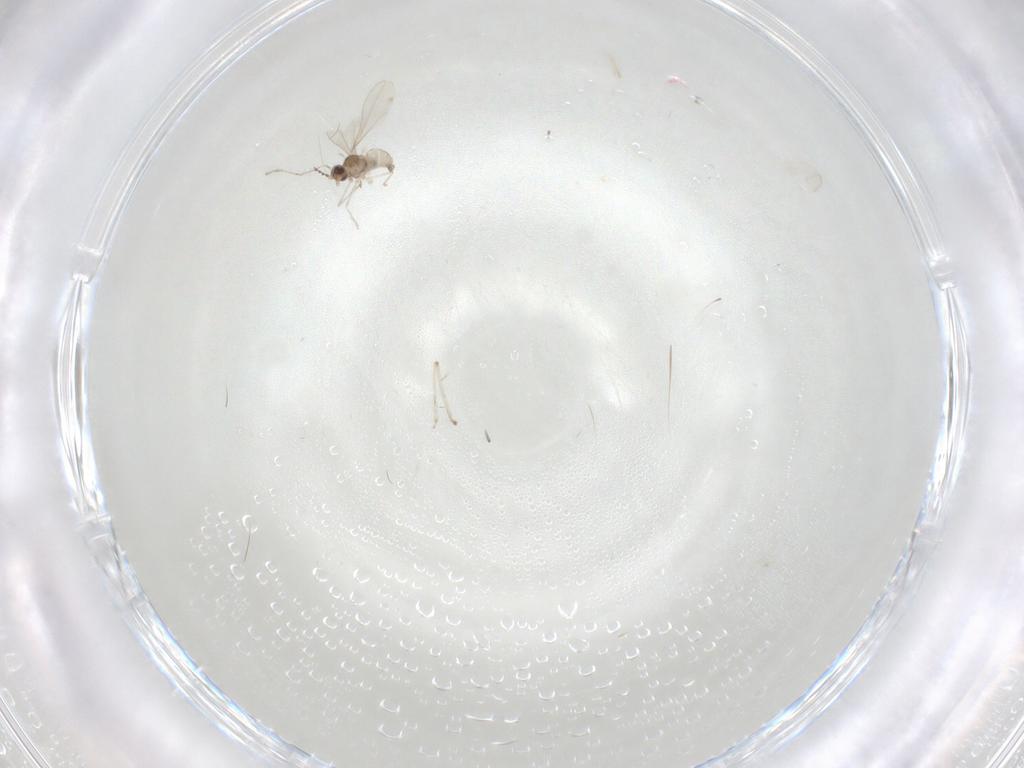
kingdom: Animalia
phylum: Arthropoda
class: Insecta
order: Diptera
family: Cecidomyiidae
